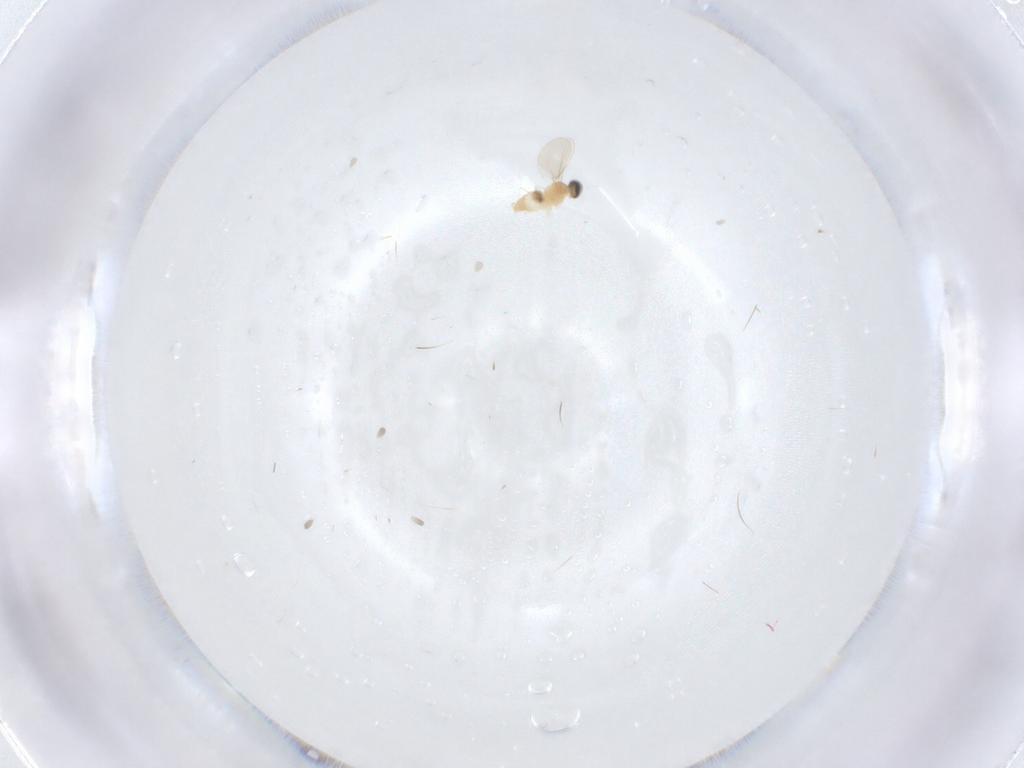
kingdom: Animalia
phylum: Arthropoda
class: Insecta
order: Diptera
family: Cecidomyiidae
